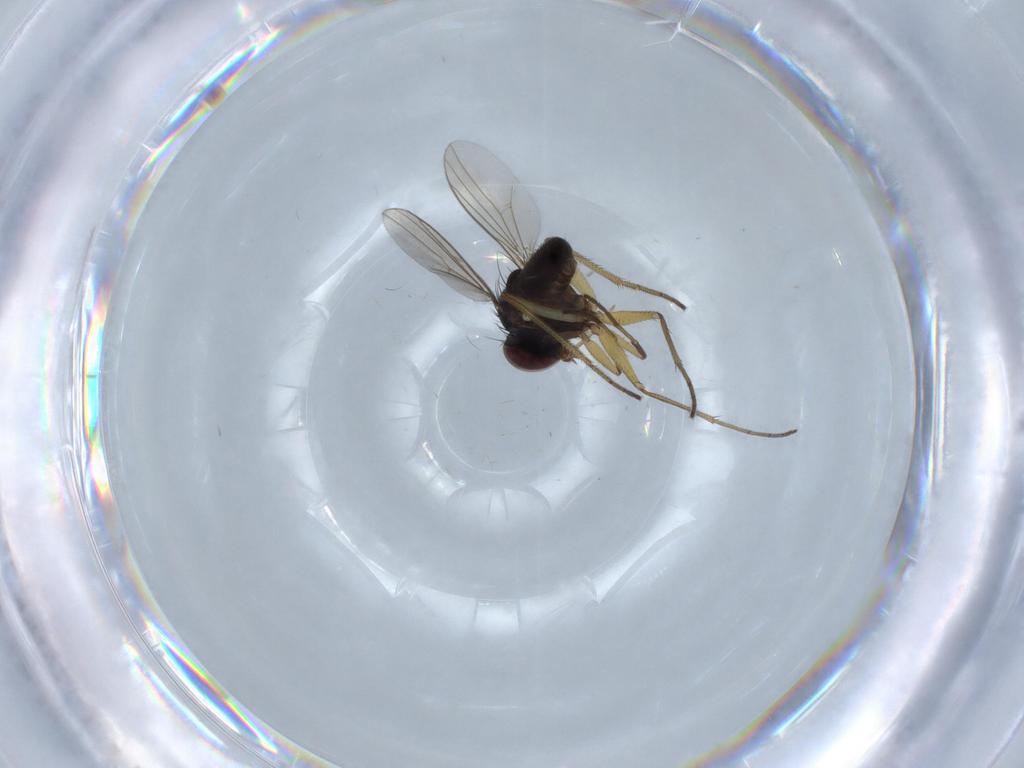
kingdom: Animalia
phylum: Arthropoda
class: Insecta
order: Diptera
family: Dolichopodidae
